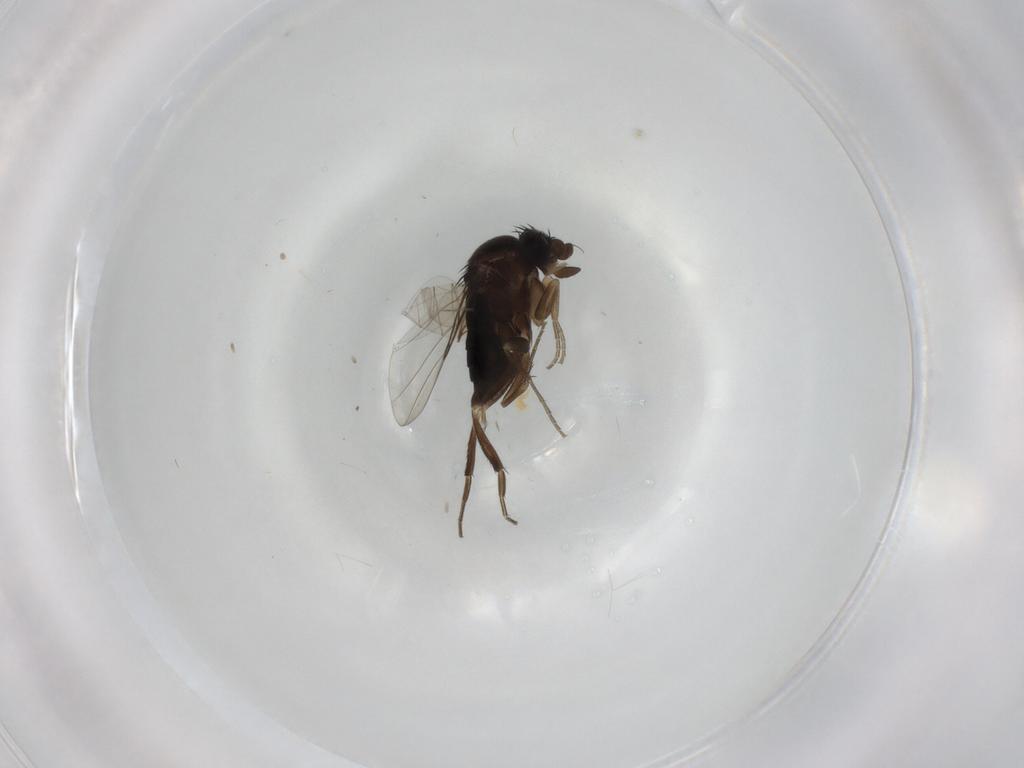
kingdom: Animalia
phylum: Arthropoda
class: Insecta
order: Diptera
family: Phoridae
